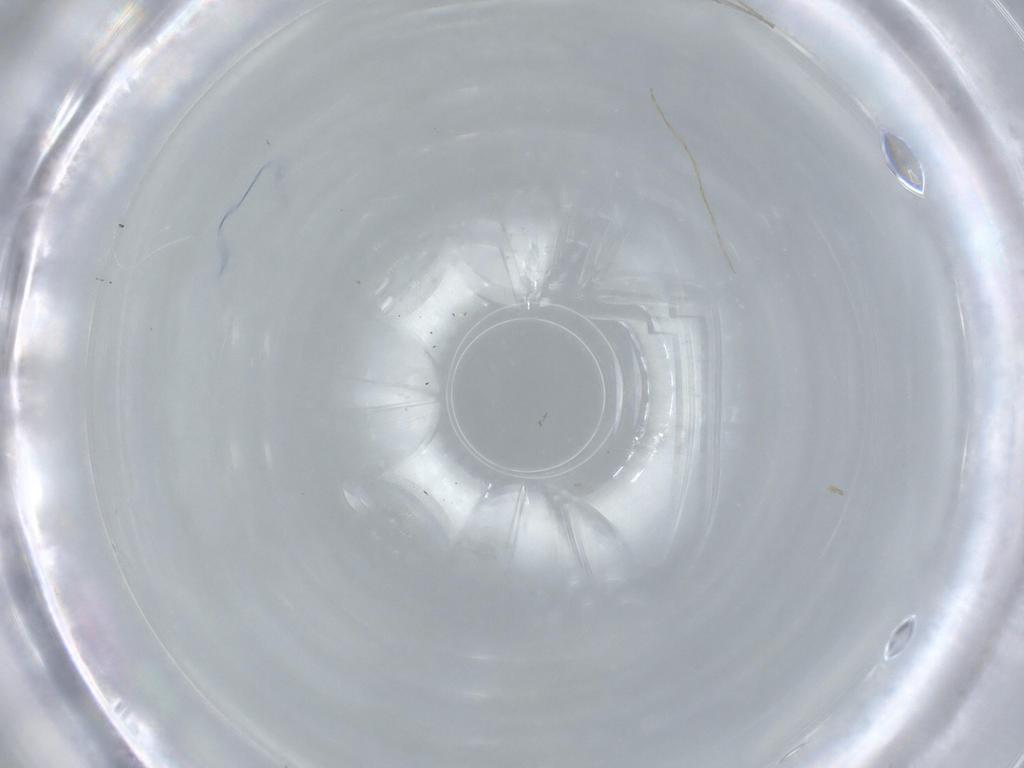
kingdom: Animalia
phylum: Arthropoda
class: Insecta
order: Diptera
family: Cecidomyiidae
